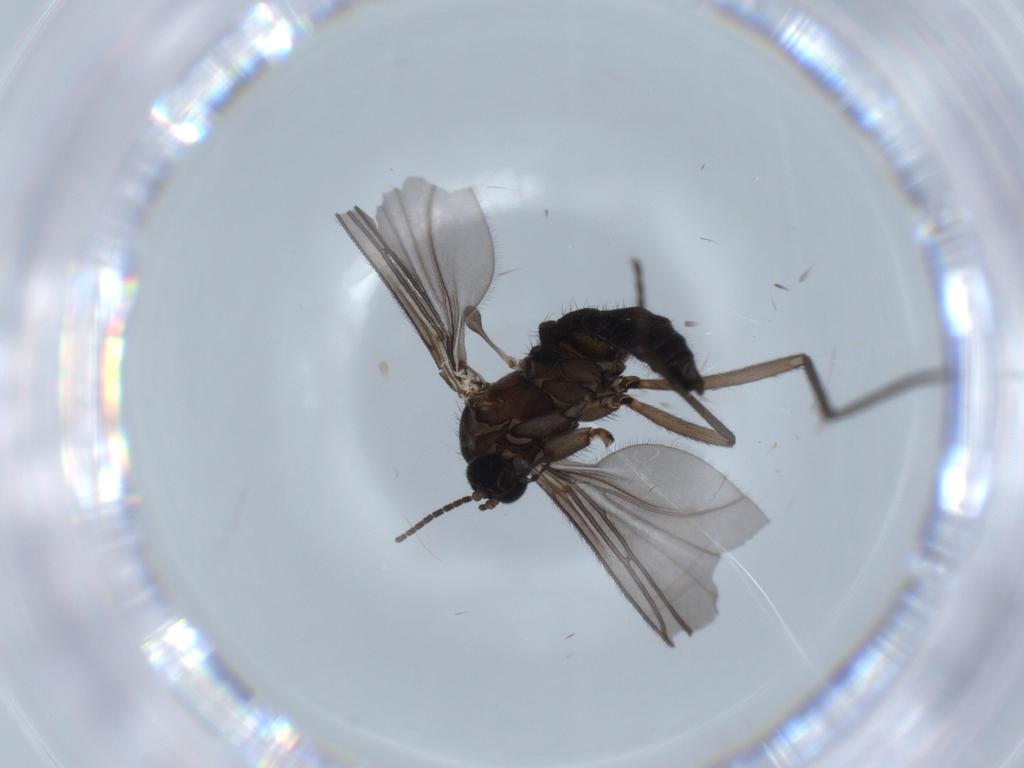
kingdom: Animalia
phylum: Arthropoda
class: Insecta
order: Diptera
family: Sciaridae
